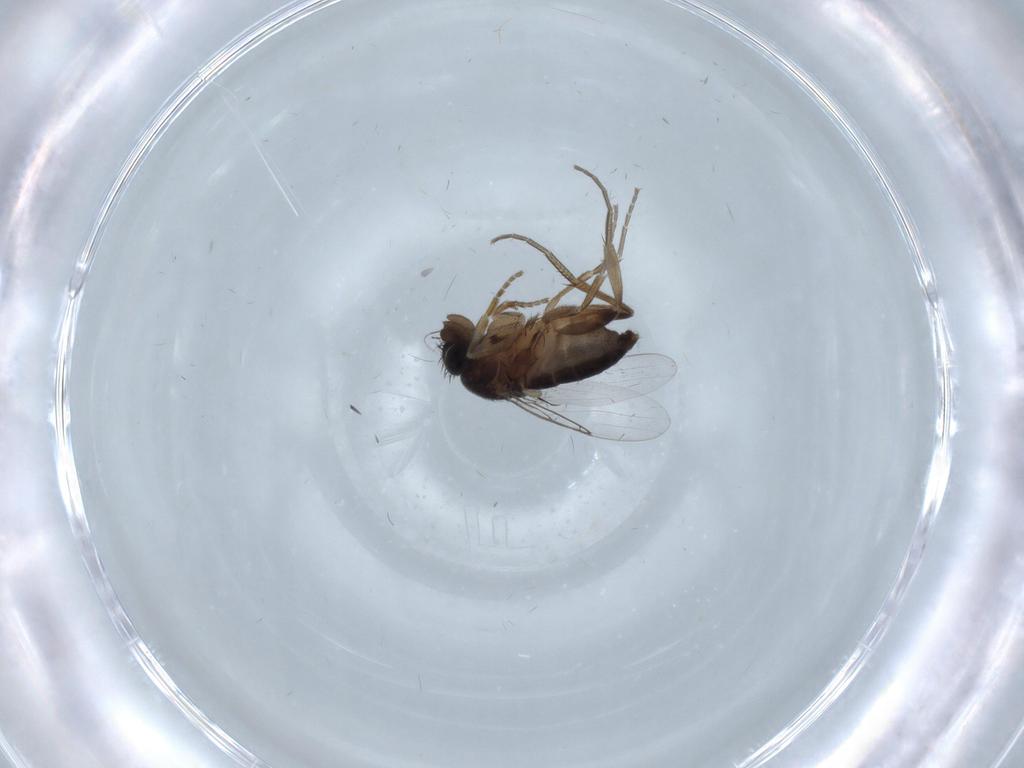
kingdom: Animalia
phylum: Arthropoda
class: Insecta
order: Diptera
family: Phoridae
